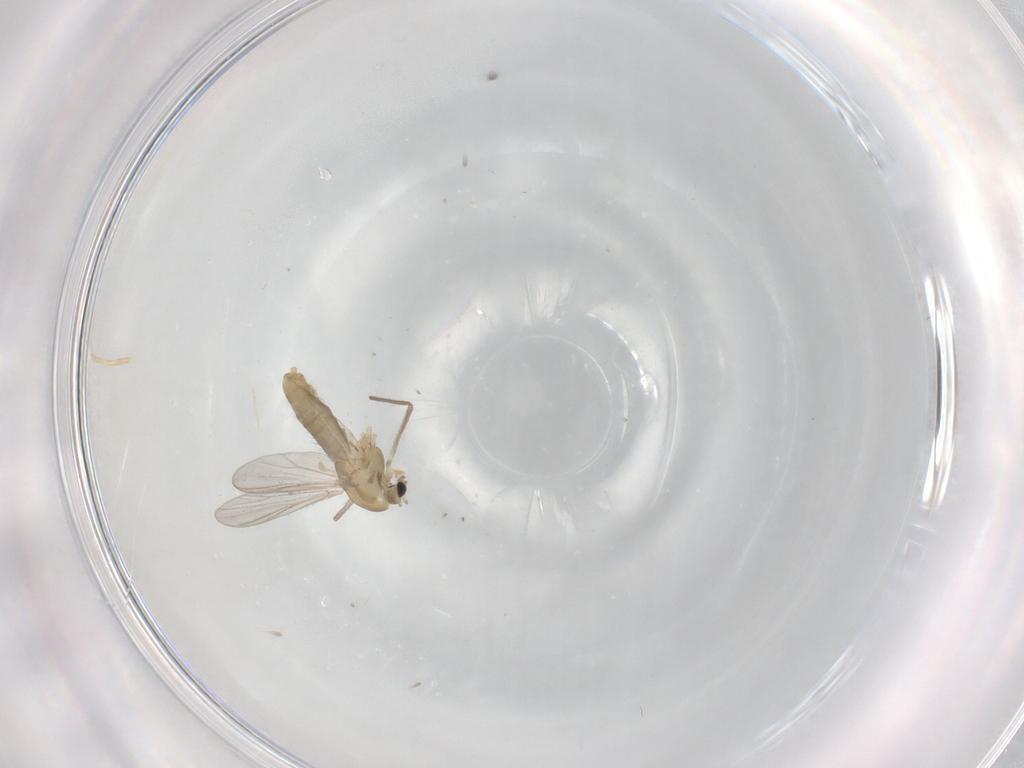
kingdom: Animalia
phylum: Arthropoda
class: Insecta
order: Diptera
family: Chironomidae
